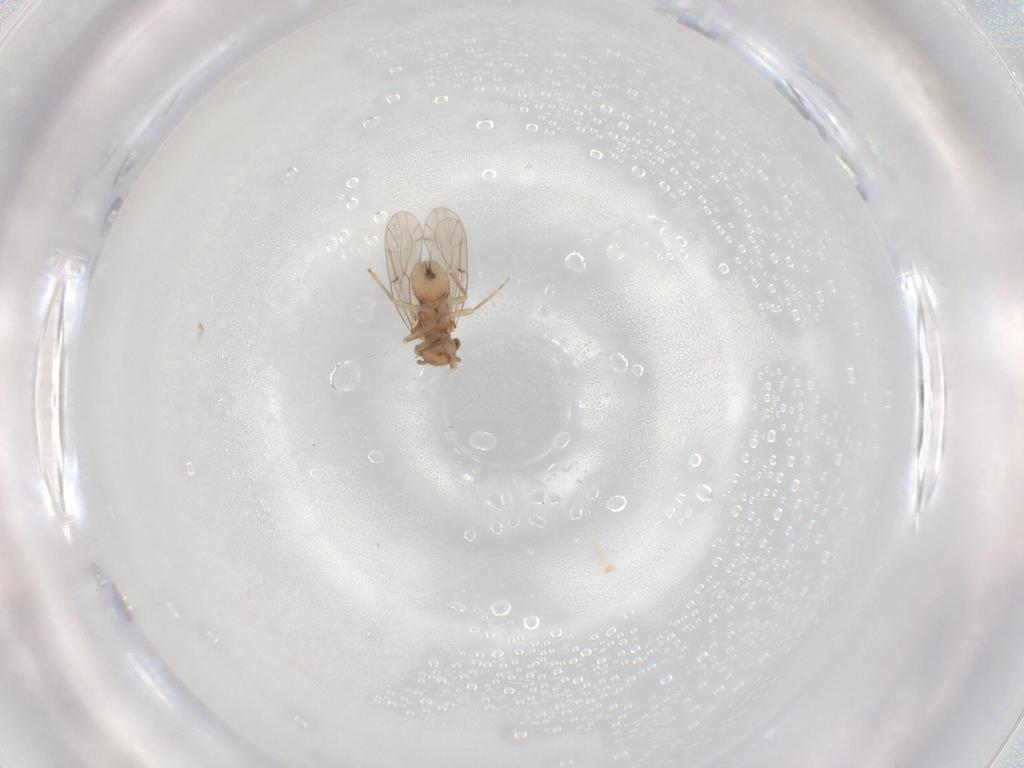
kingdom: Animalia
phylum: Arthropoda
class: Insecta
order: Psocodea
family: Ectopsocidae
